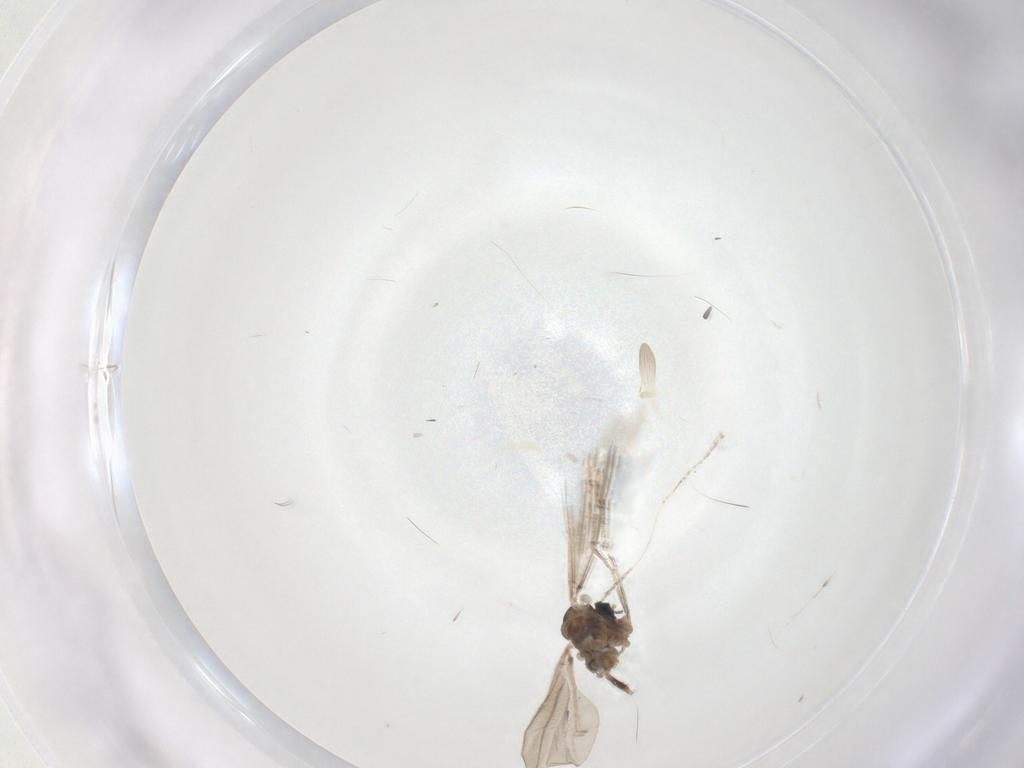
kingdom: Animalia
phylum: Arthropoda
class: Insecta
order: Diptera
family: Cecidomyiidae
